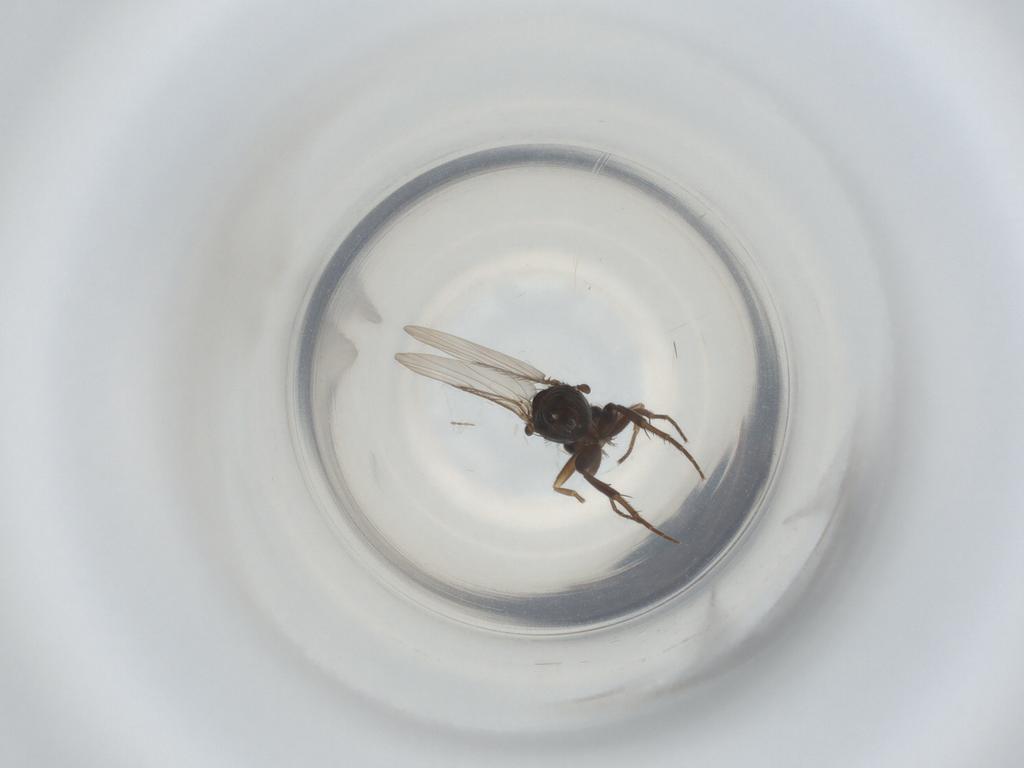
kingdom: Animalia
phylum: Arthropoda
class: Insecta
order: Diptera
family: Phoridae
